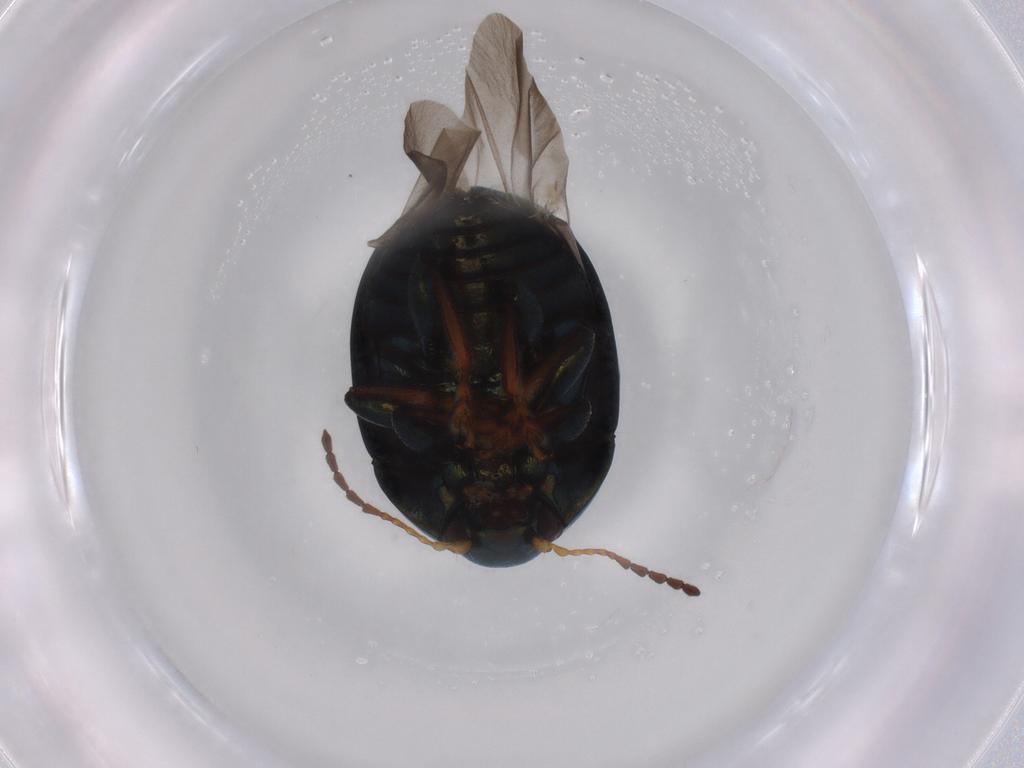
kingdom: Animalia
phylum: Arthropoda
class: Insecta
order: Coleoptera
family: Chrysomelidae
